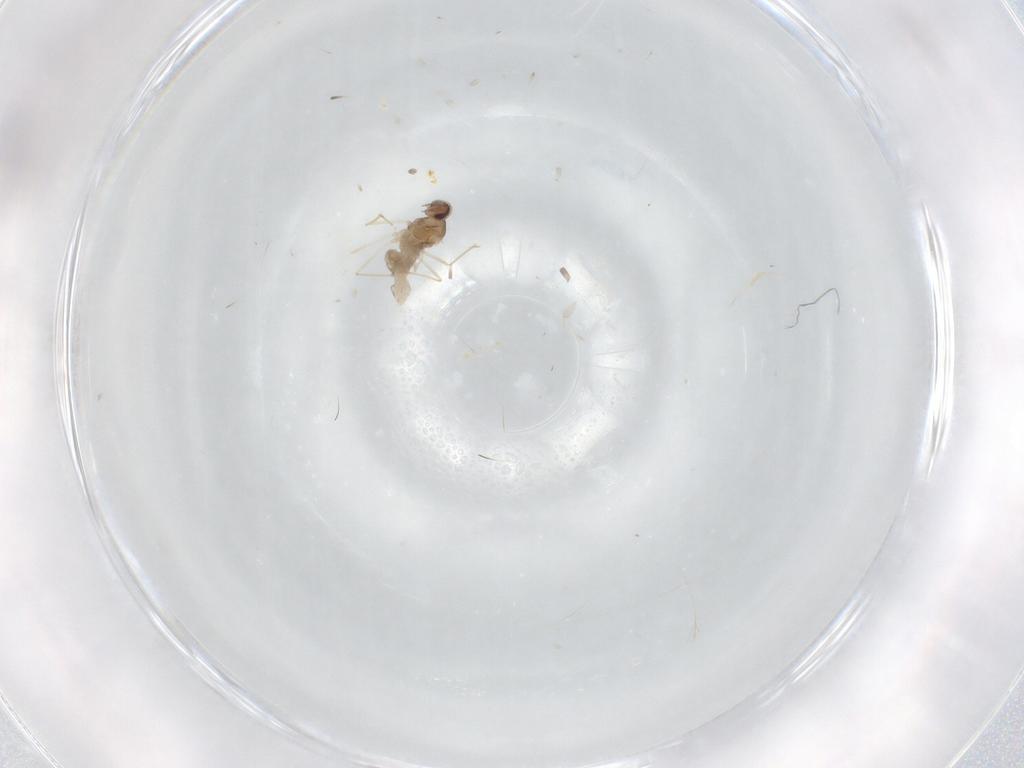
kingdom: Animalia
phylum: Arthropoda
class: Insecta
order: Diptera
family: Cecidomyiidae
